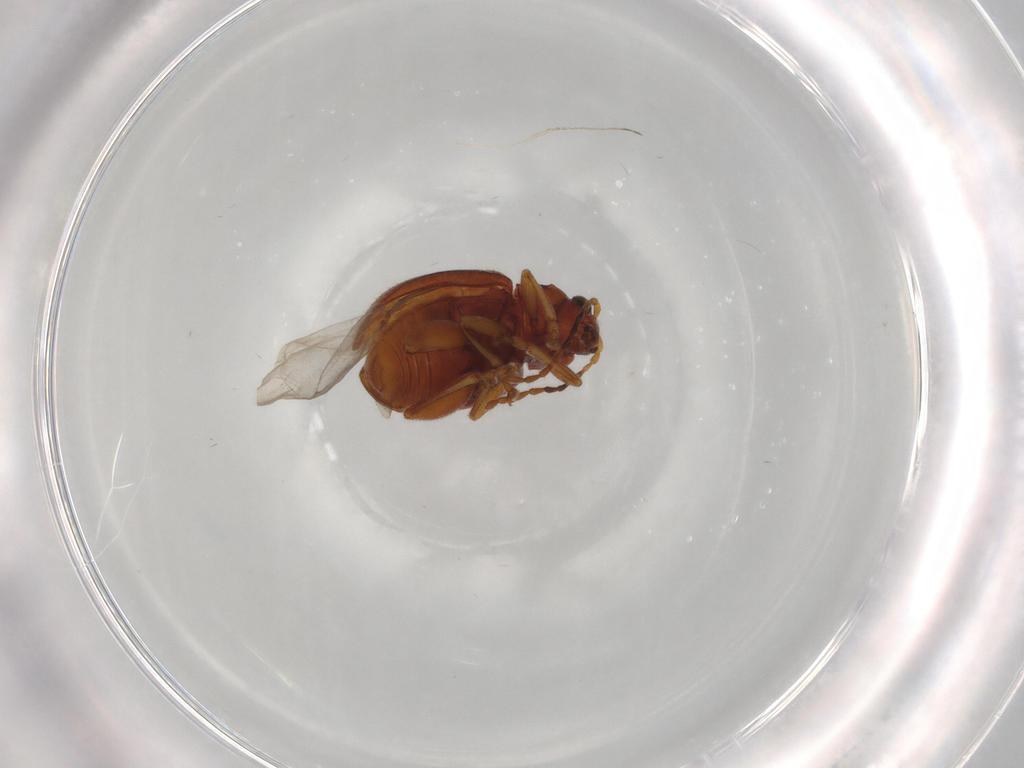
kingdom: Animalia
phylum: Arthropoda
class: Insecta
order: Coleoptera
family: Chrysomelidae
